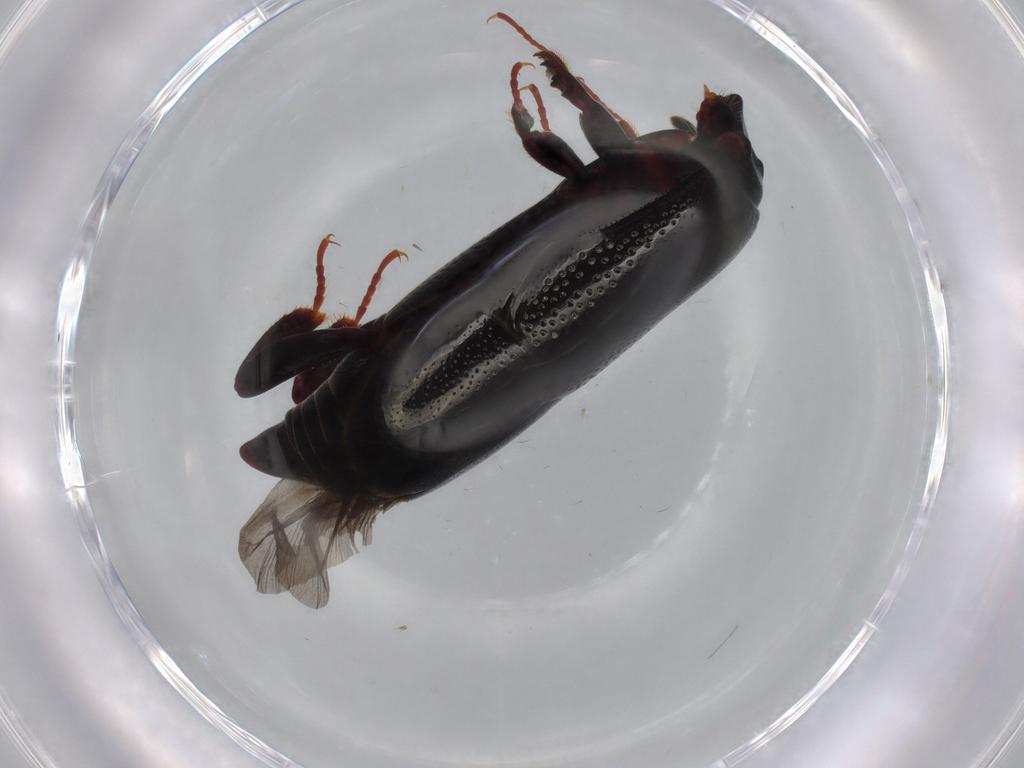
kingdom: Animalia
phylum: Arthropoda
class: Insecta
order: Coleoptera
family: Histeridae
